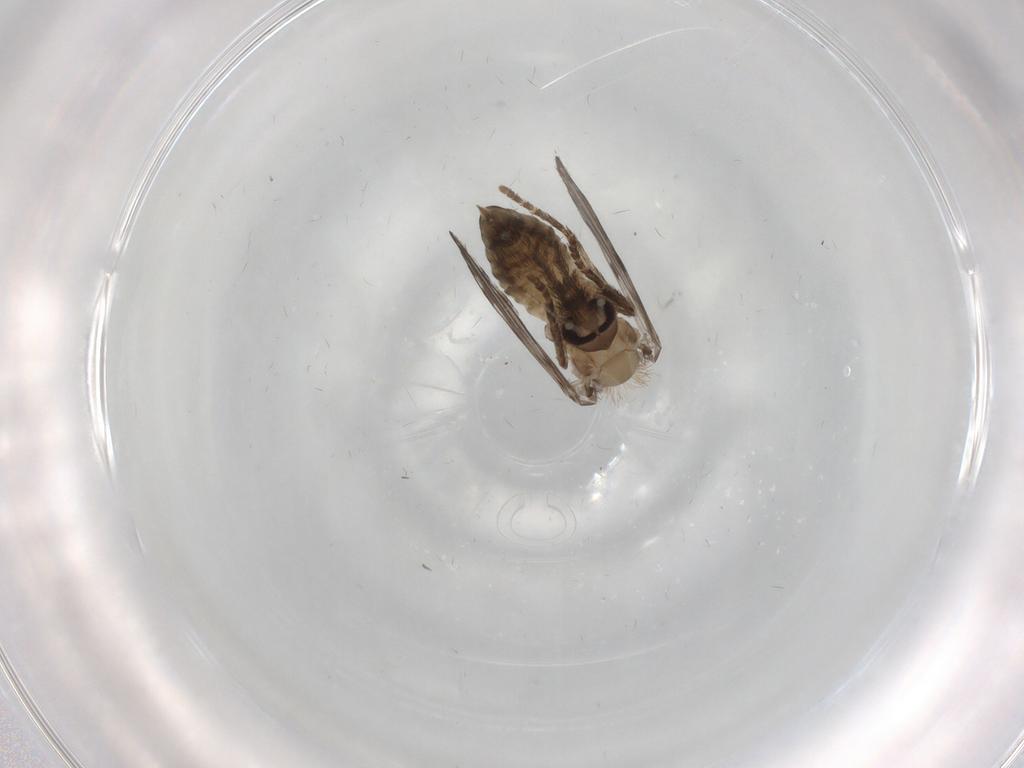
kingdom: Animalia
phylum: Arthropoda
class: Insecta
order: Diptera
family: Psychodidae
